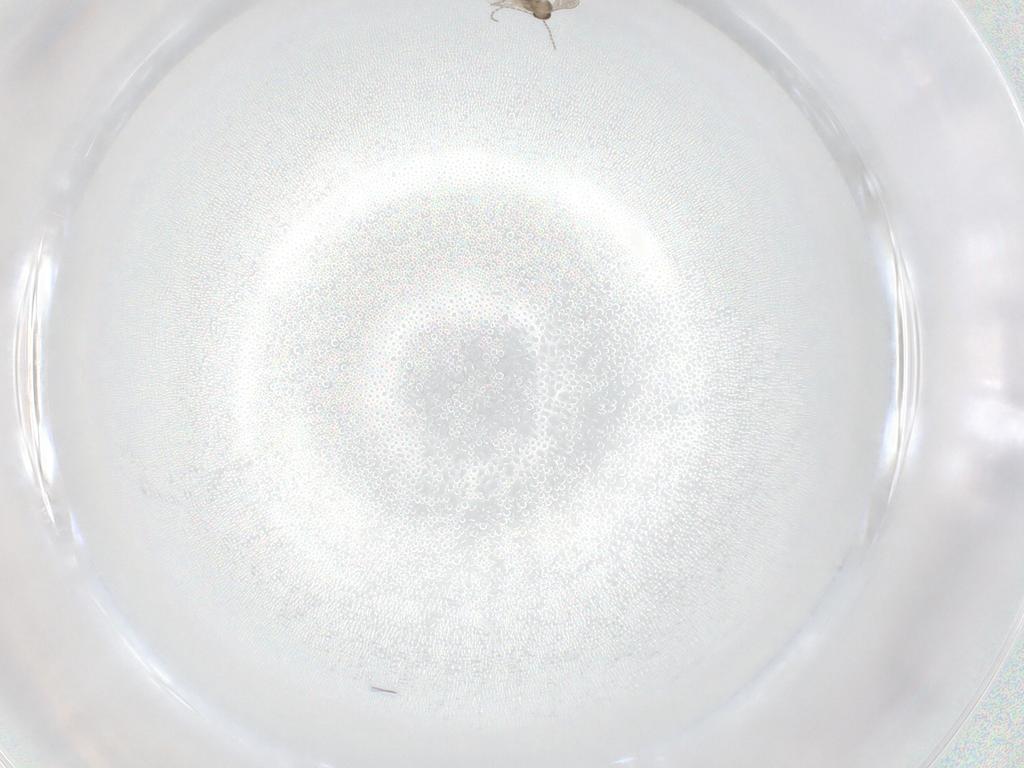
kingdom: Animalia
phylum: Arthropoda
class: Insecta
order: Diptera
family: Cecidomyiidae
